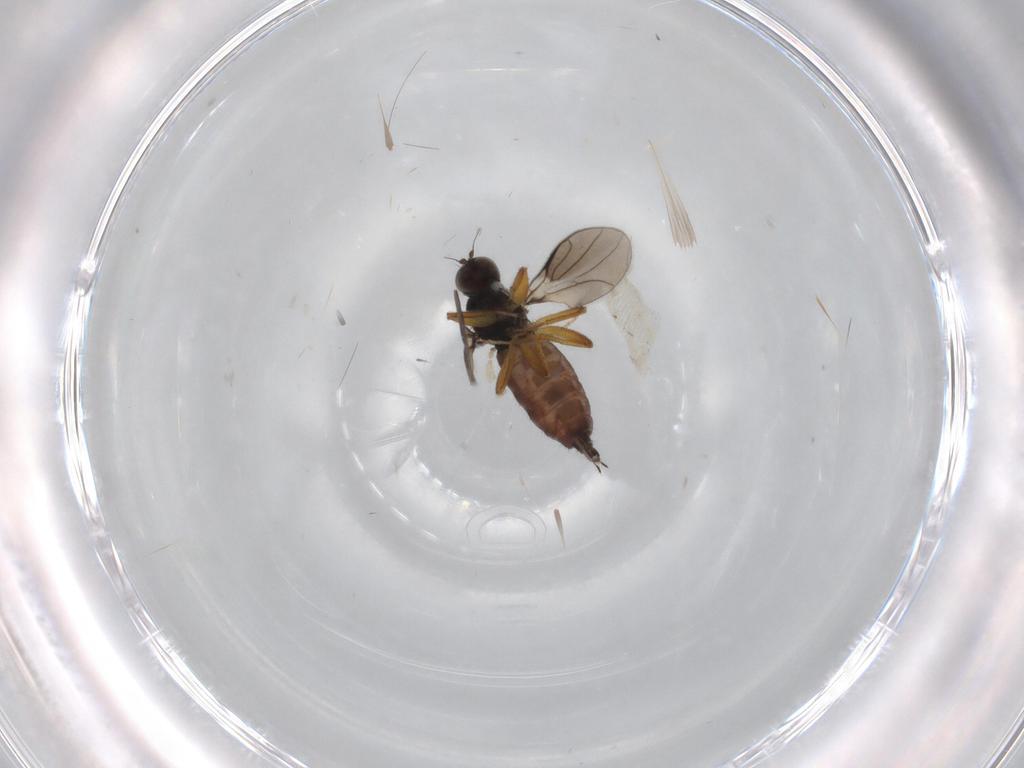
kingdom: Animalia
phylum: Arthropoda
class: Insecta
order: Diptera
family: Hybotidae
